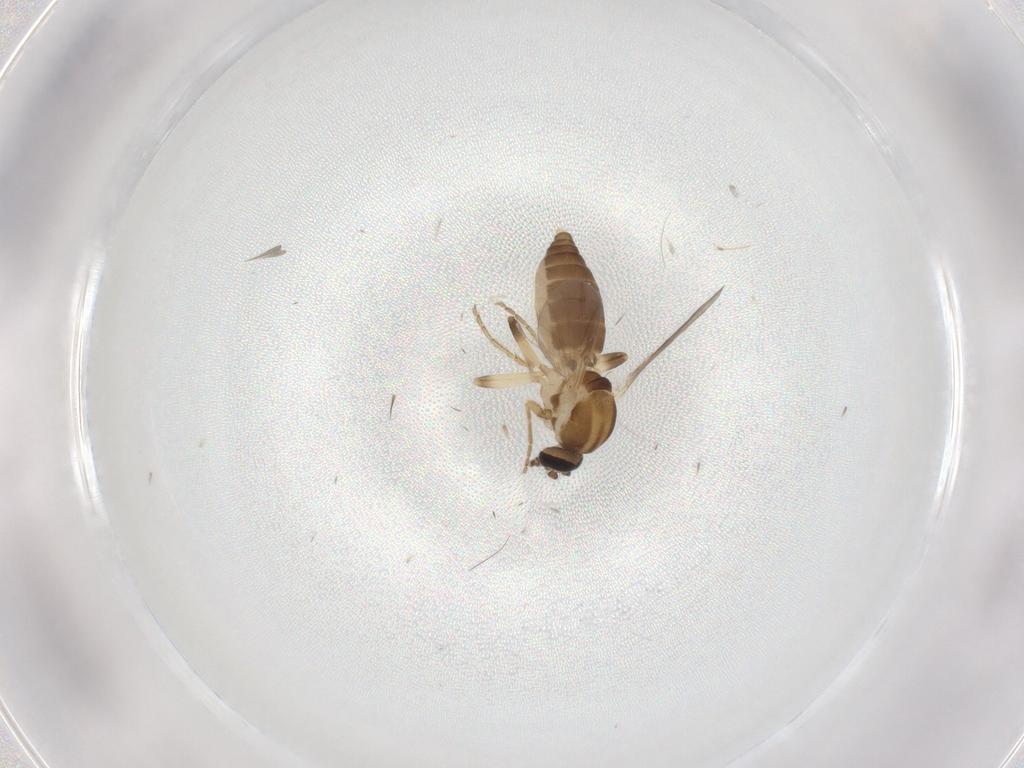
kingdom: Animalia
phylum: Arthropoda
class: Insecta
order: Diptera
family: Ceratopogonidae
